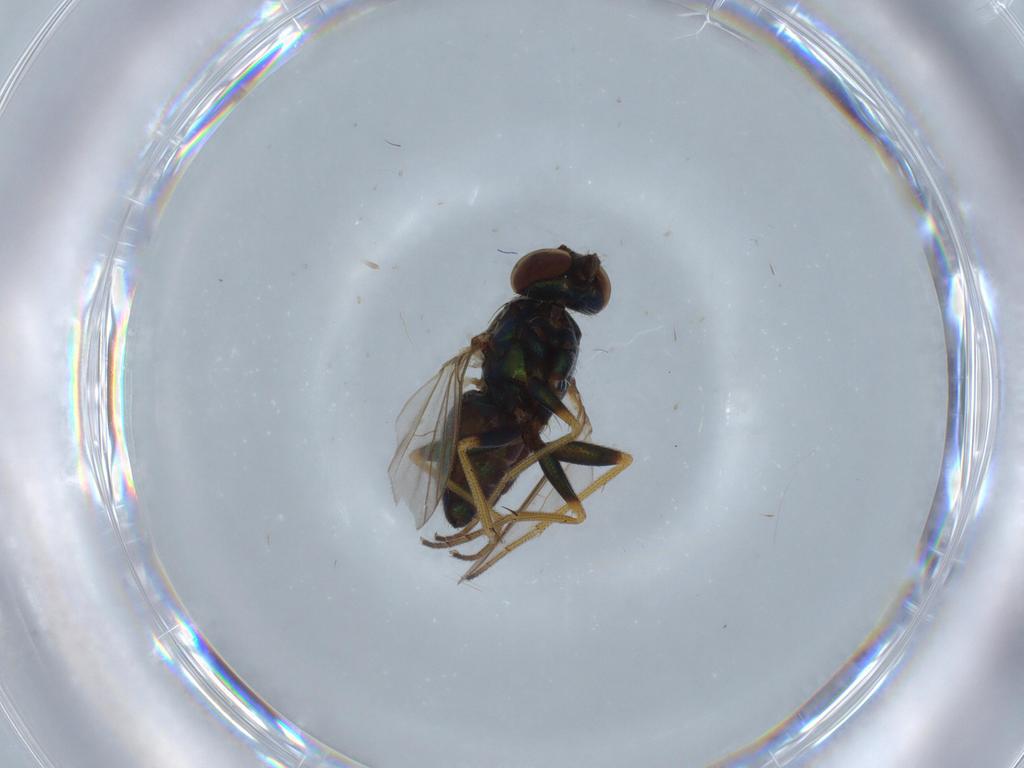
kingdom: Animalia
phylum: Arthropoda
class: Insecta
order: Diptera
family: Dolichopodidae
